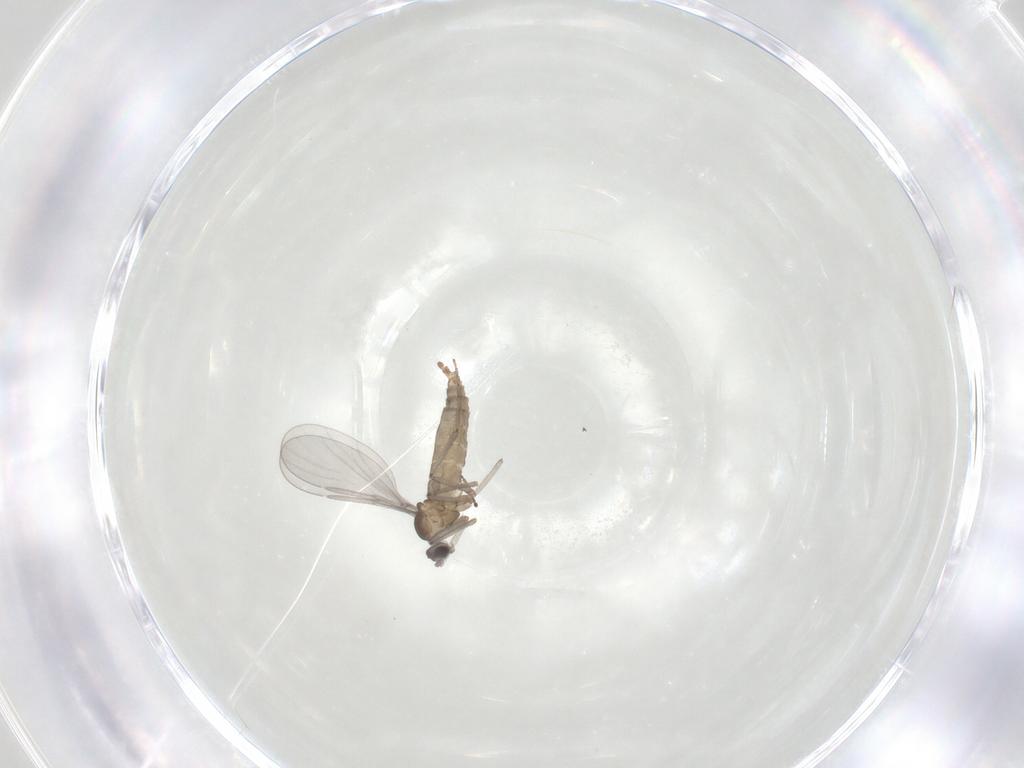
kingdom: Animalia
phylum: Arthropoda
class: Insecta
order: Diptera
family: Cecidomyiidae
